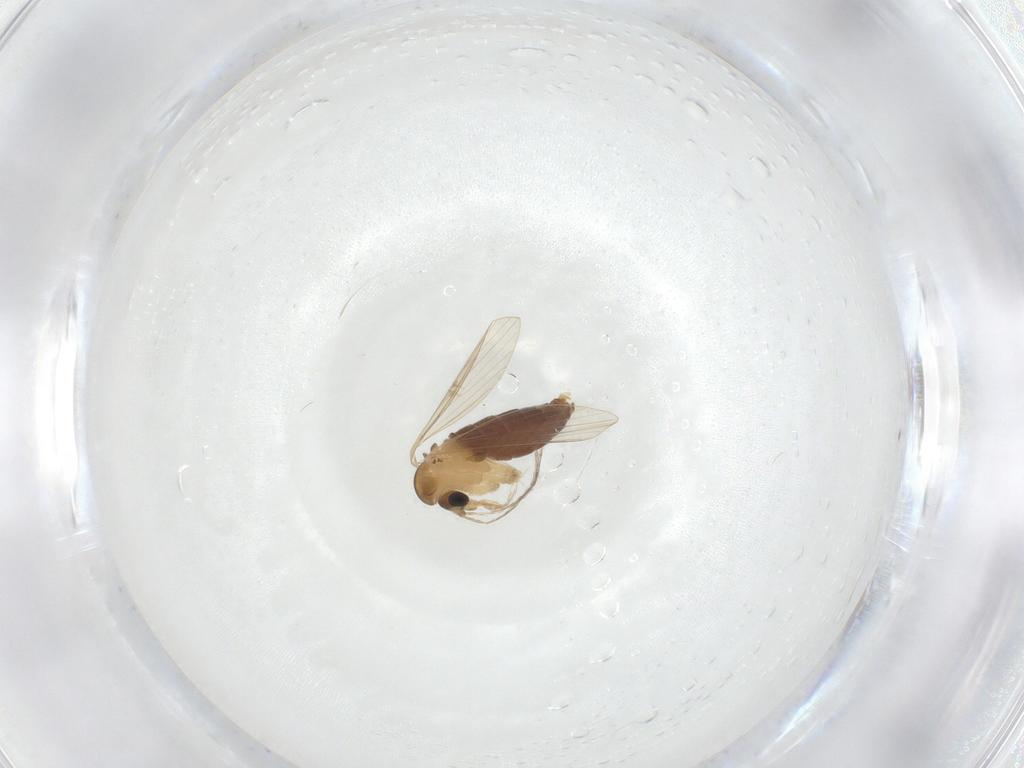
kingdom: Animalia
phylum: Arthropoda
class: Insecta
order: Diptera
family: Psychodidae
